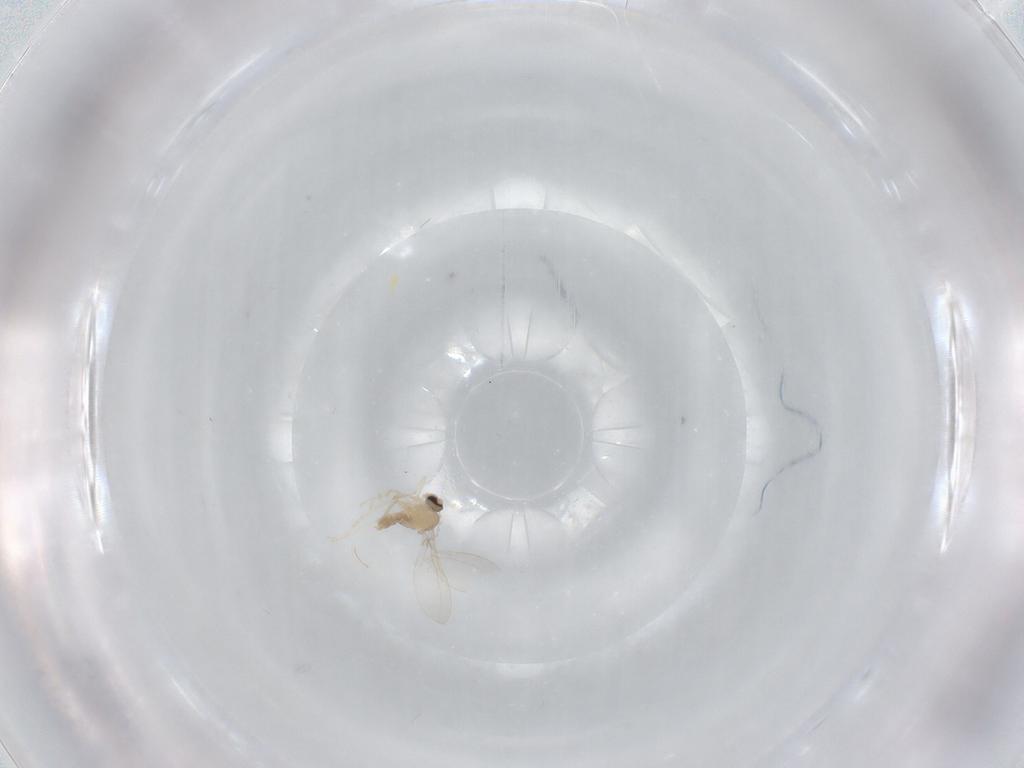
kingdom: Animalia
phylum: Arthropoda
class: Insecta
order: Diptera
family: Cecidomyiidae
